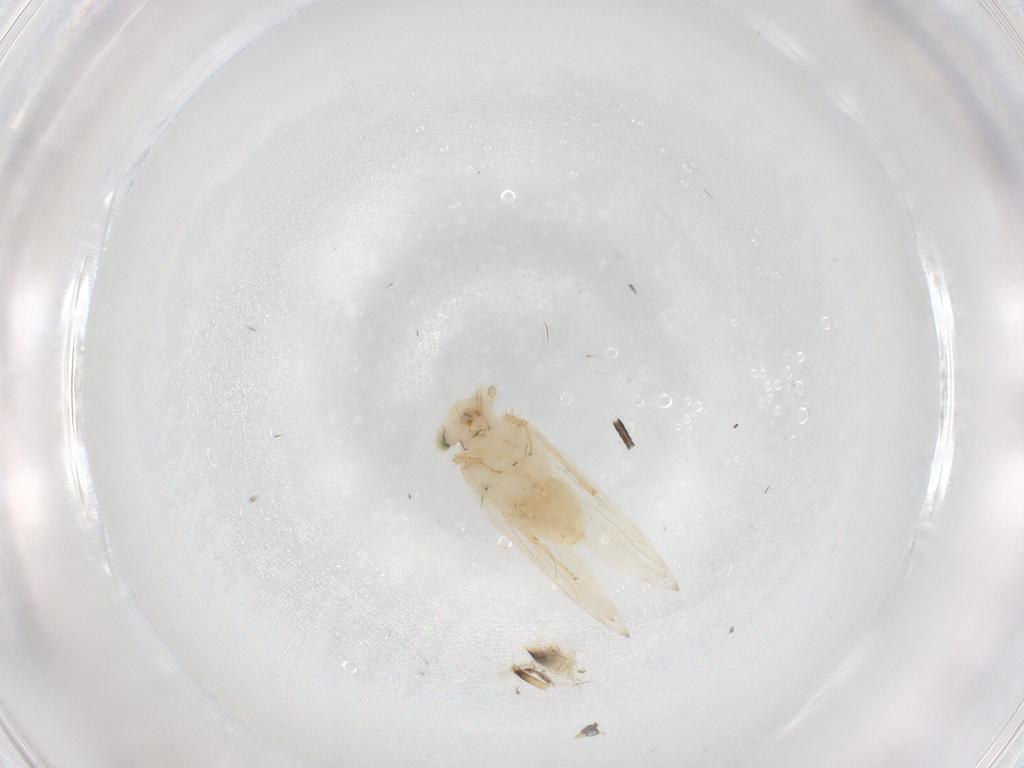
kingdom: Animalia
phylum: Arthropoda
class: Insecta
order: Psocodea
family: Lepidopsocidae
